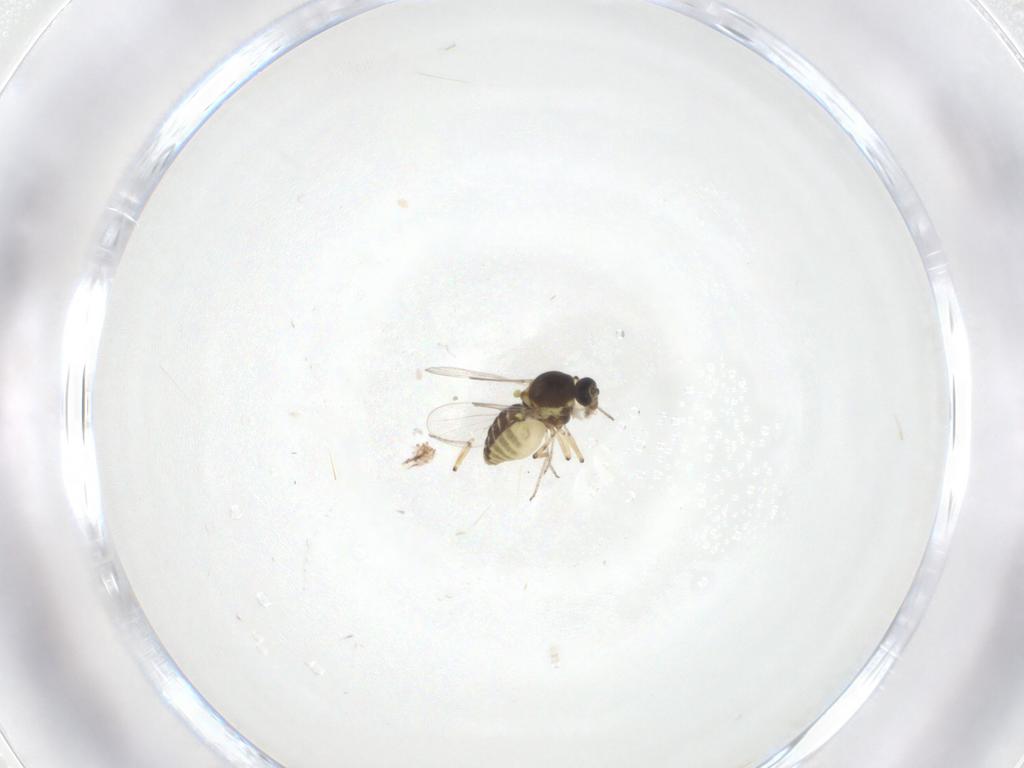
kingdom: Animalia
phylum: Arthropoda
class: Insecta
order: Diptera
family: Ceratopogonidae
